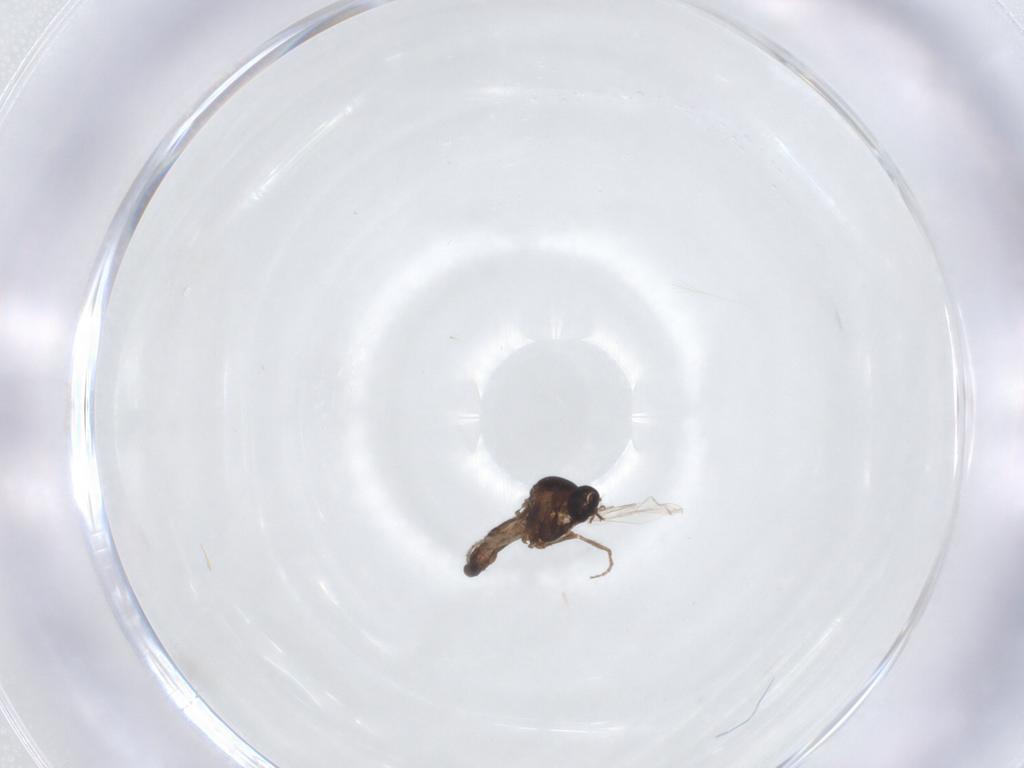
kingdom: Animalia
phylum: Arthropoda
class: Insecta
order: Diptera
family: Ceratopogonidae
